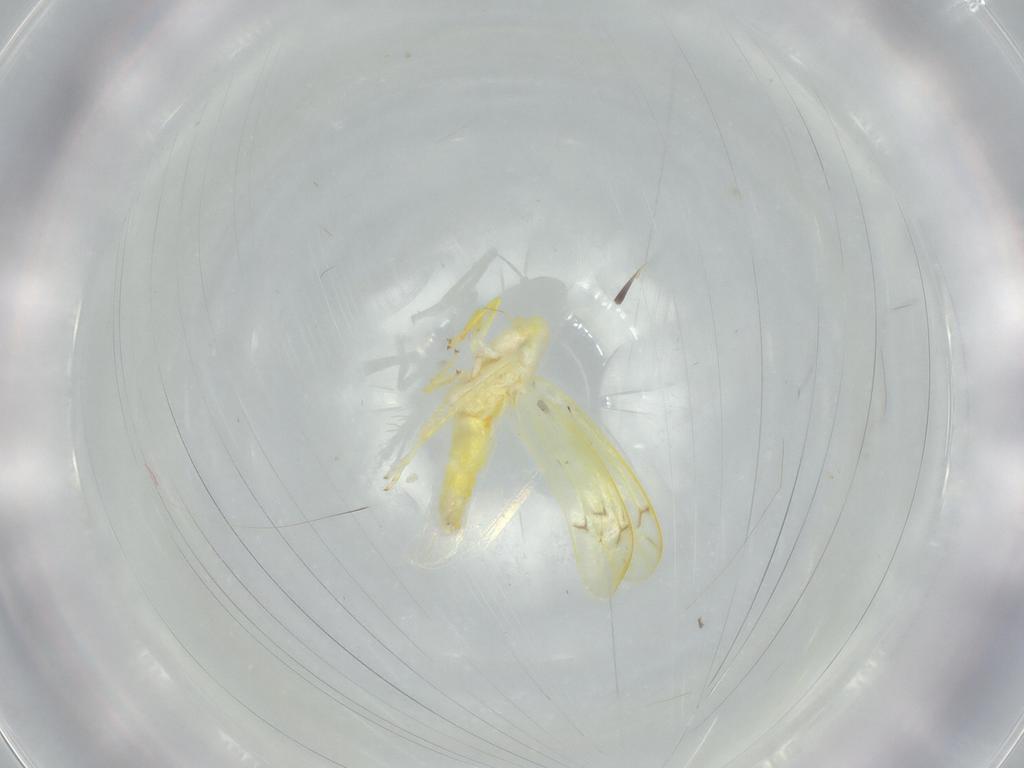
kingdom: Animalia
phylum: Arthropoda
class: Insecta
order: Hemiptera
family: Cicadellidae
